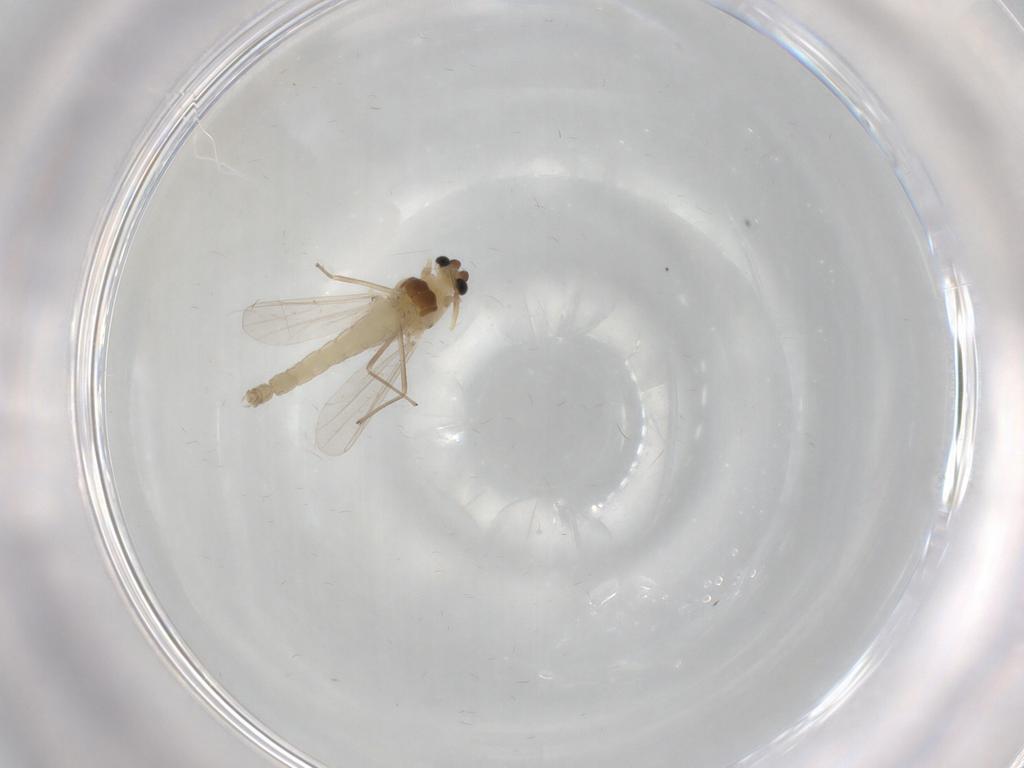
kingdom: Animalia
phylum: Arthropoda
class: Insecta
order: Diptera
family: Chironomidae
